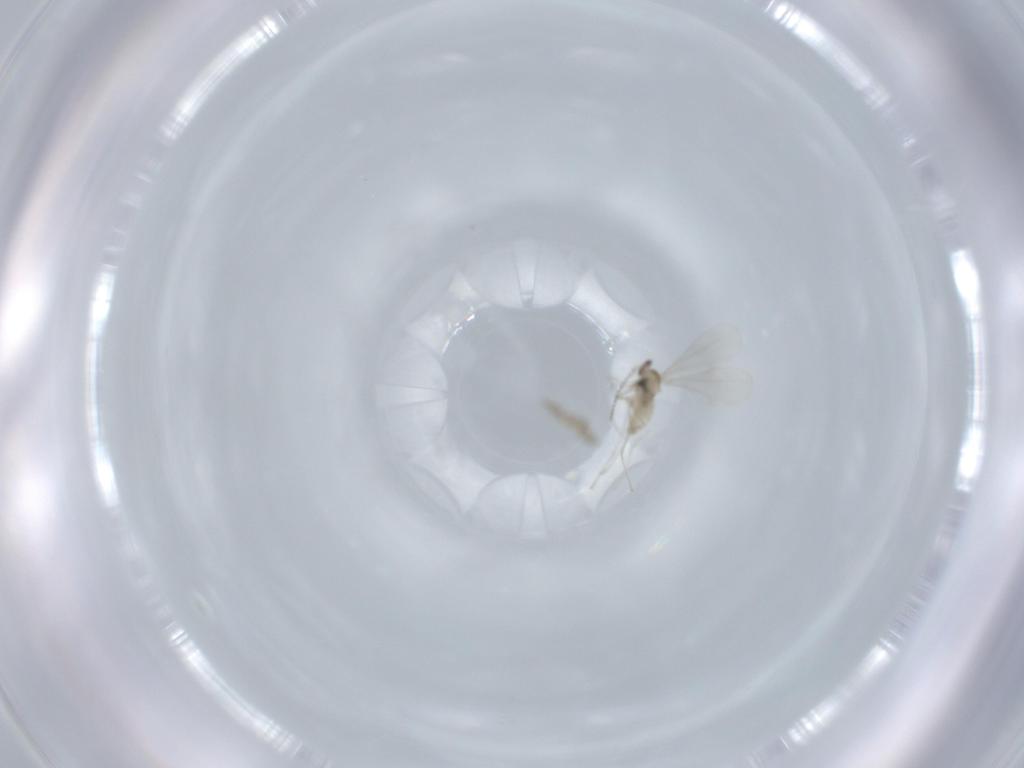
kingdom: Animalia
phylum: Arthropoda
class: Insecta
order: Diptera
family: Cecidomyiidae
